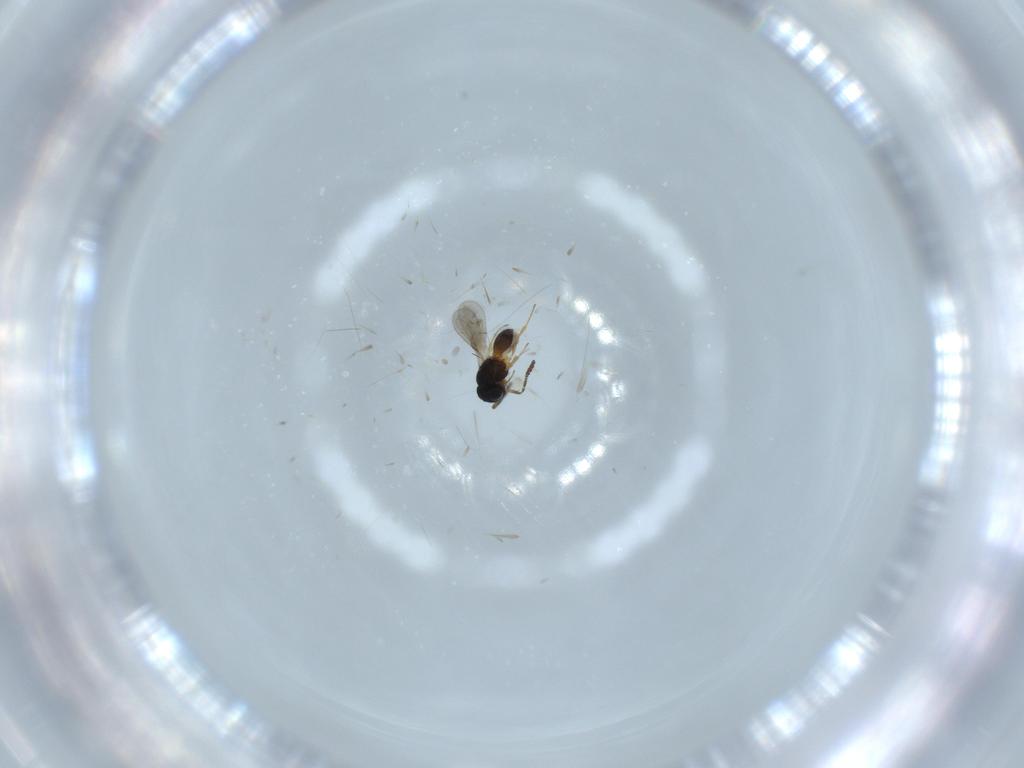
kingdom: Animalia
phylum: Arthropoda
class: Insecta
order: Hymenoptera
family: Scelionidae
